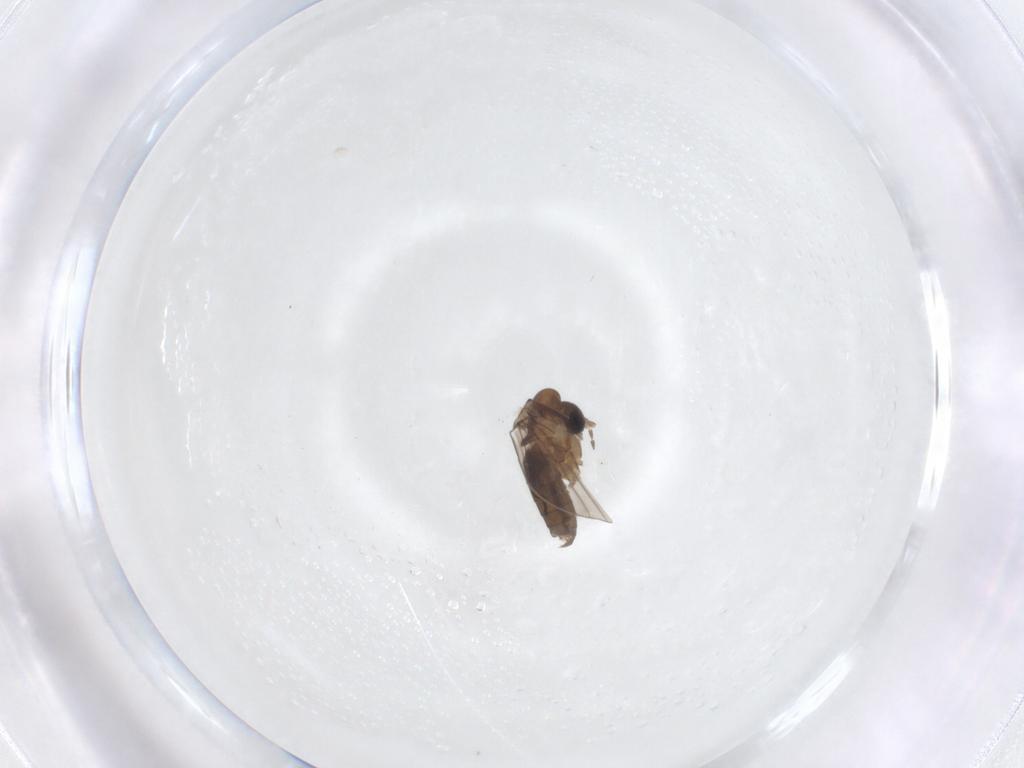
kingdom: Animalia
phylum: Arthropoda
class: Insecta
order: Diptera
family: Psychodidae
